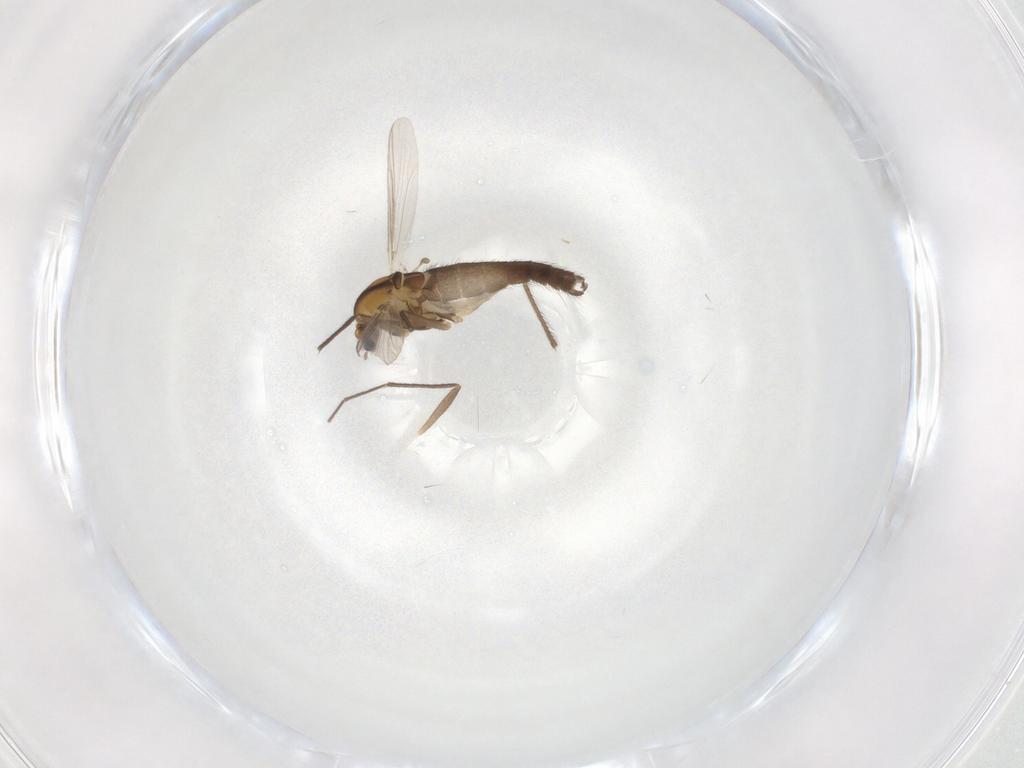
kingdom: Animalia
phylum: Arthropoda
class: Insecta
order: Diptera
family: Chironomidae
